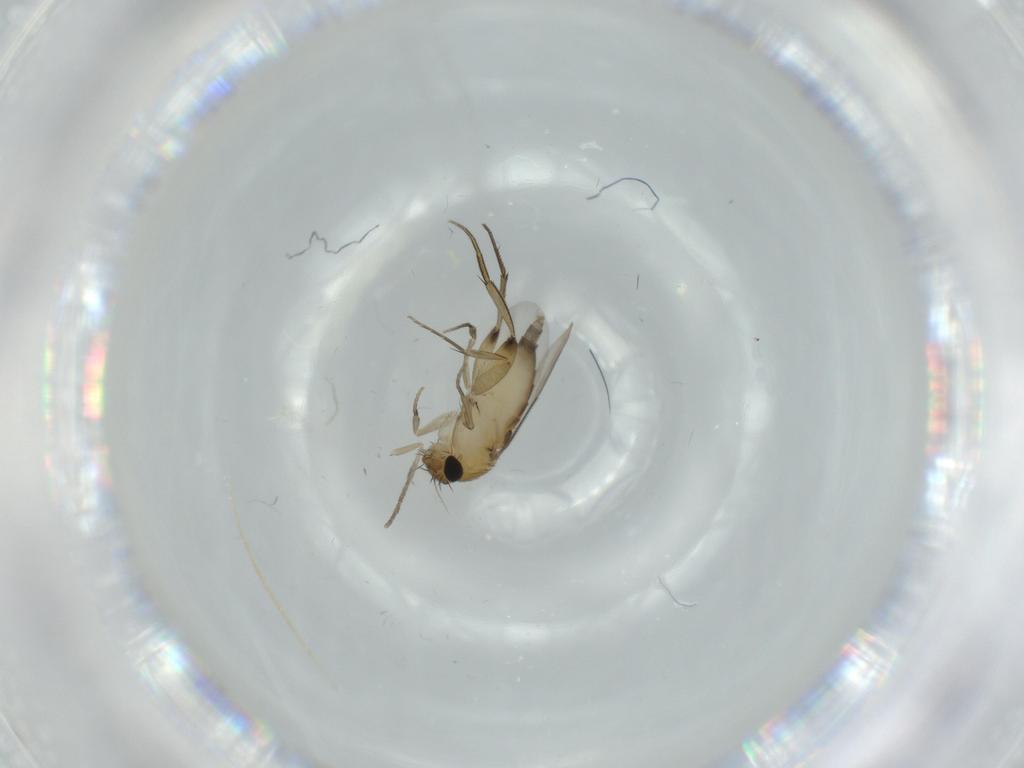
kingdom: Animalia
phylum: Arthropoda
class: Insecta
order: Diptera
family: Phoridae
